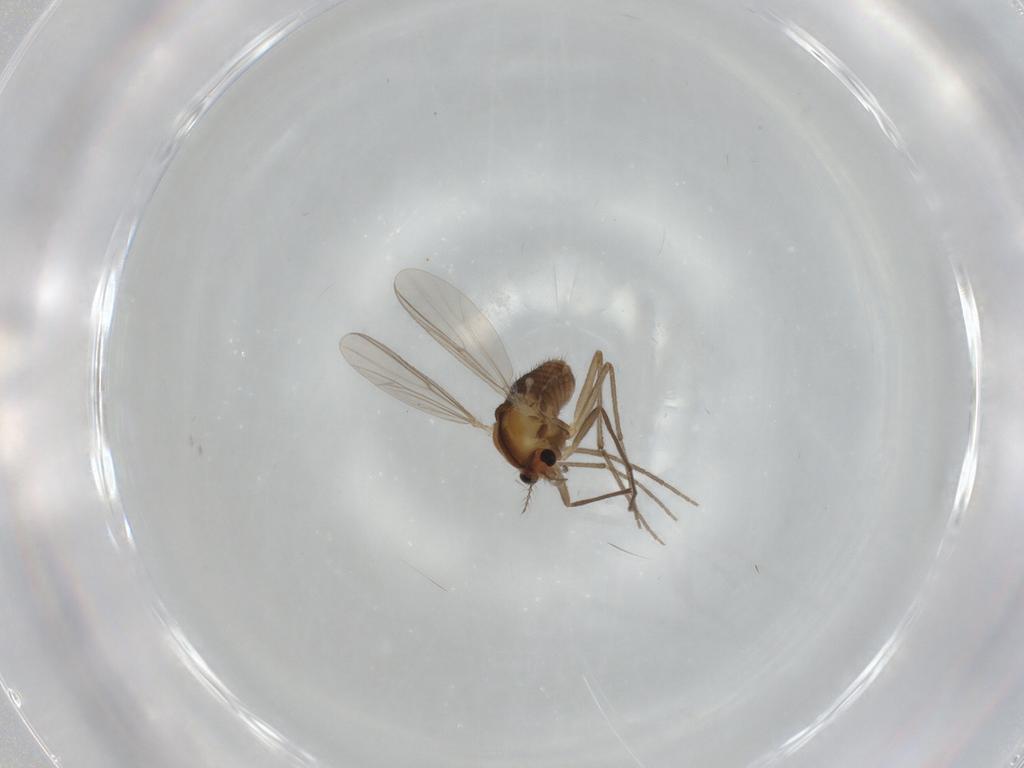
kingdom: Animalia
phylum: Arthropoda
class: Insecta
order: Diptera
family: Chironomidae
